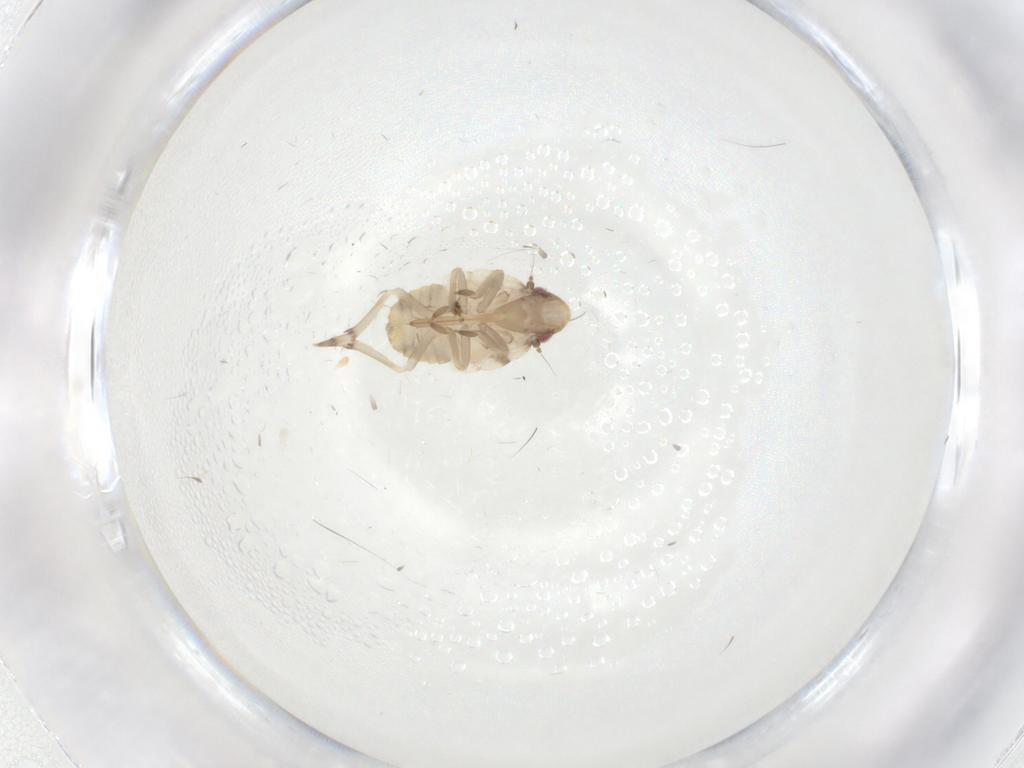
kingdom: Animalia
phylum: Arthropoda
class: Insecta
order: Hemiptera
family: Flatidae
